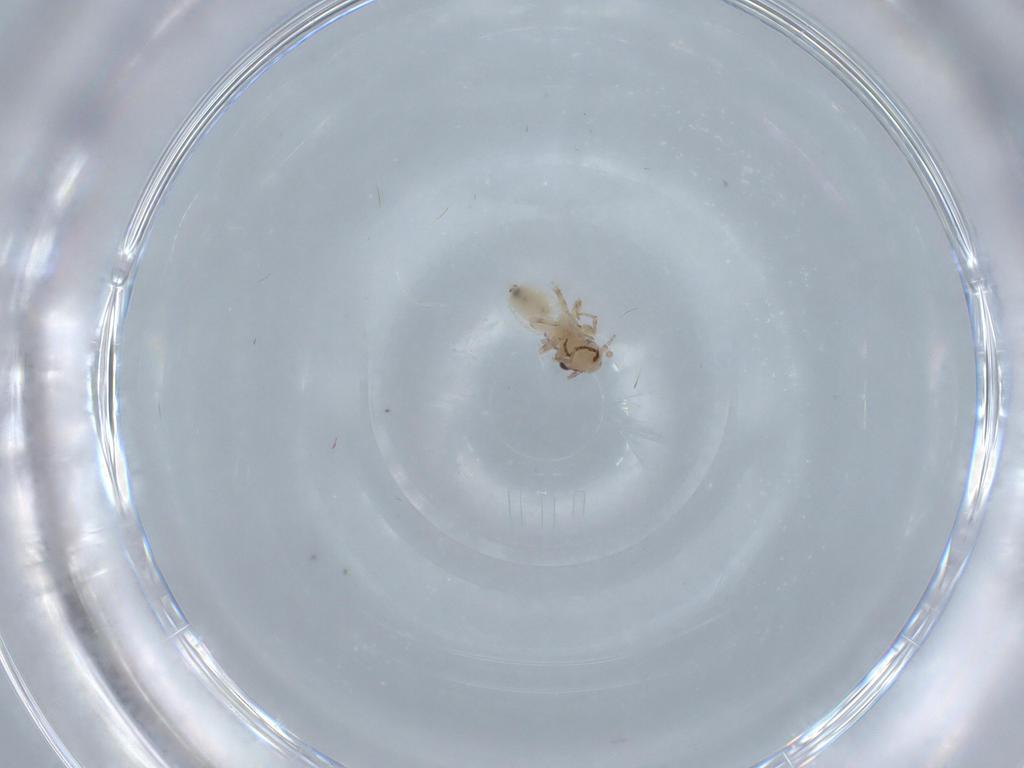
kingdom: Animalia
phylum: Arthropoda
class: Insecta
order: Psocodea
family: Lepidopsocidae
